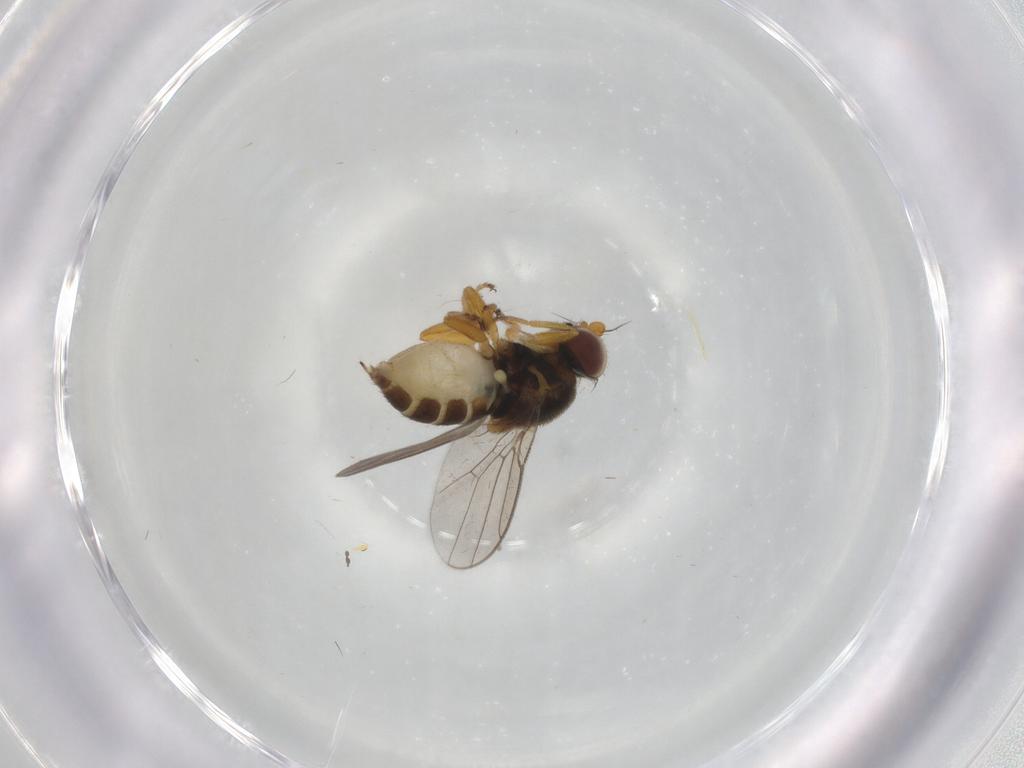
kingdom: Animalia
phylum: Arthropoda
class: Insecta
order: Diptera
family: Chloropidae
